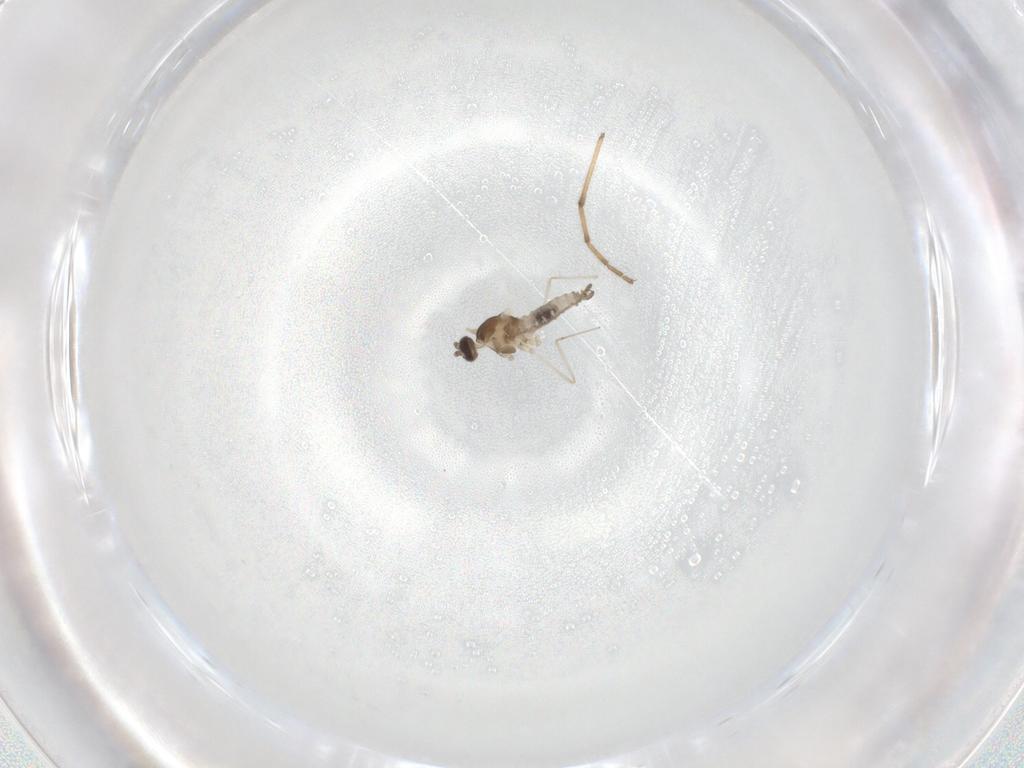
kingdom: Animalia
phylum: Arthropoda
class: Insecta
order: Diptera
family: Cecidomyiidae
